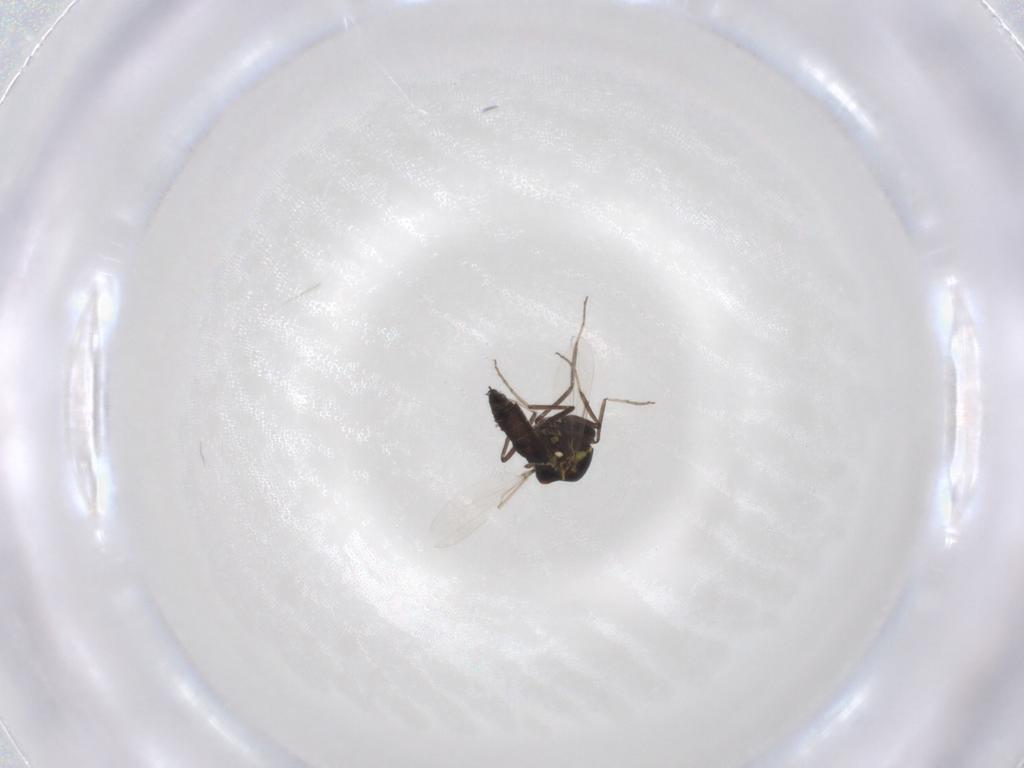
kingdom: Animalia
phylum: Arthropoda
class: Insecta
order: Diptera
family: Ceratopogonidae
